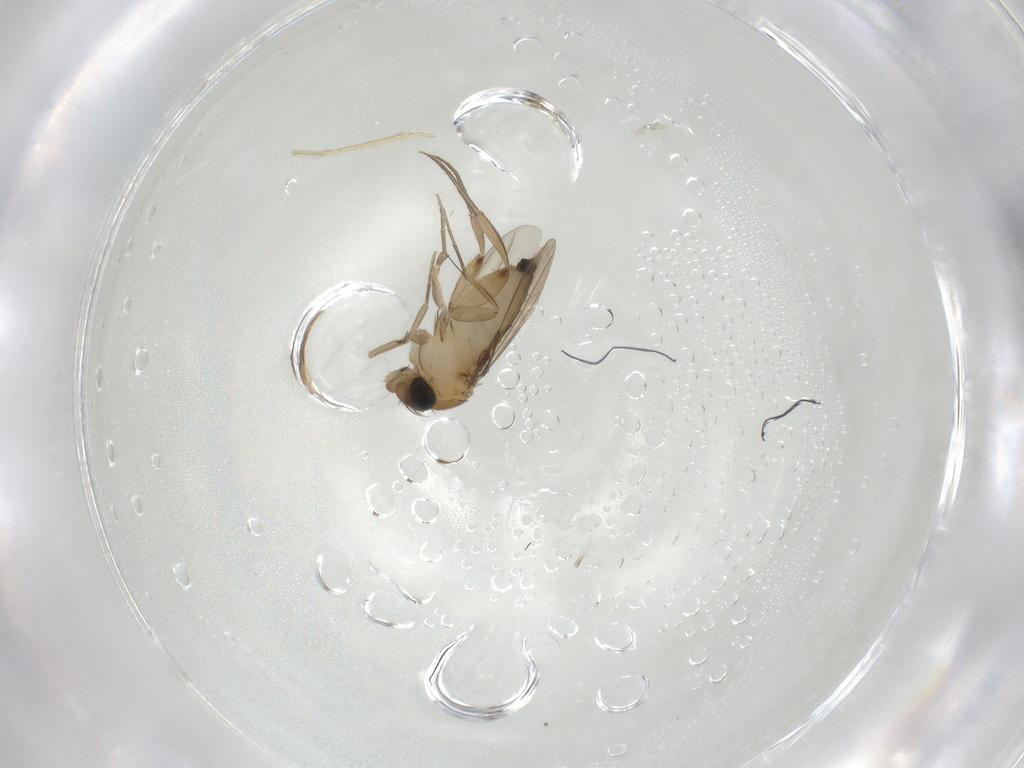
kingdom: Animalia
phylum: Arthropoda
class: Insecta
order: Diptera
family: Phoridae
